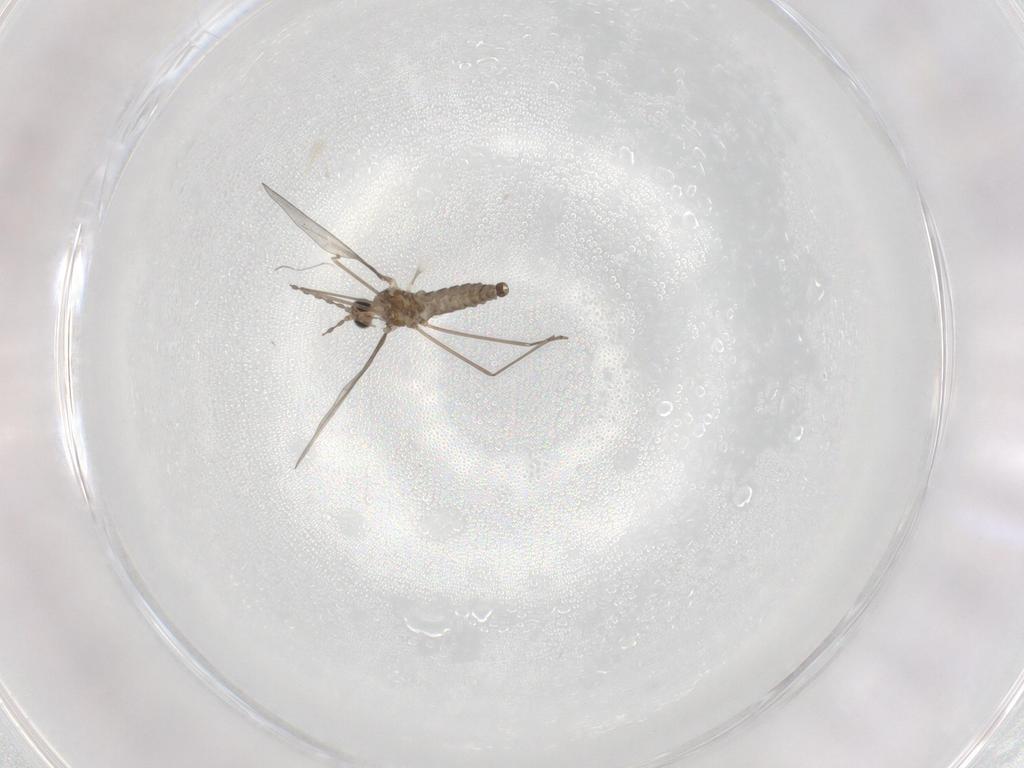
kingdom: Animalia
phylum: Arthropoda
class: Insecta
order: Diptera
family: Cecidomyiidae
